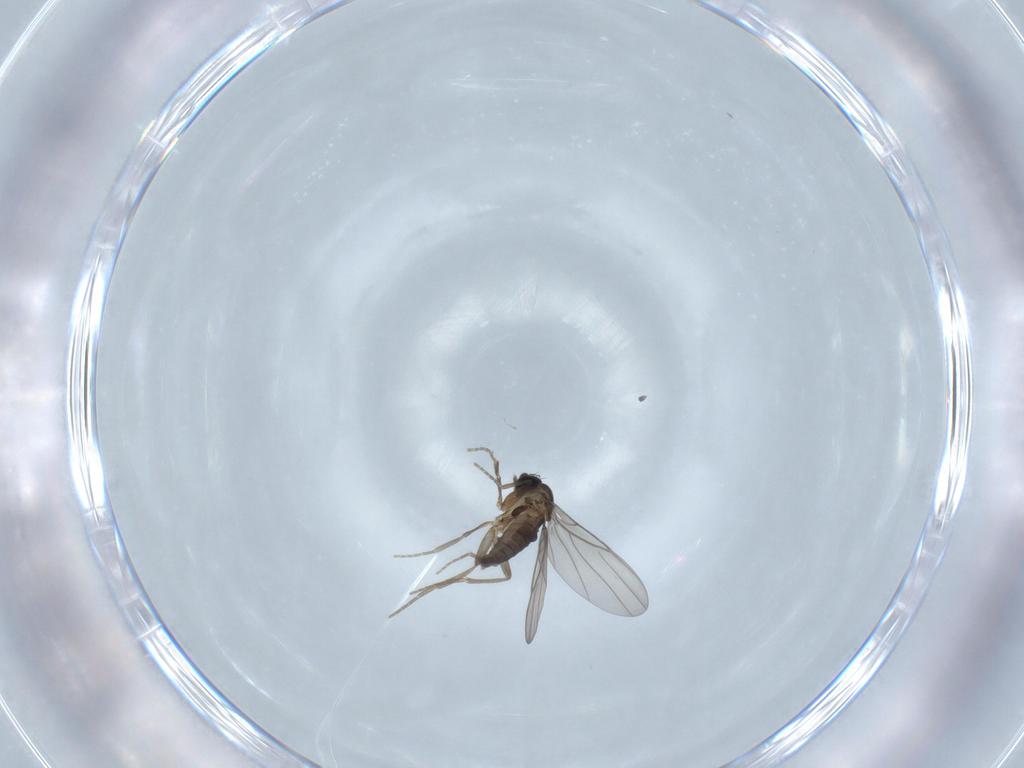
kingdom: Animalia
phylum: Arthropoda
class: Insecta
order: Diptera
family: Phoridae
